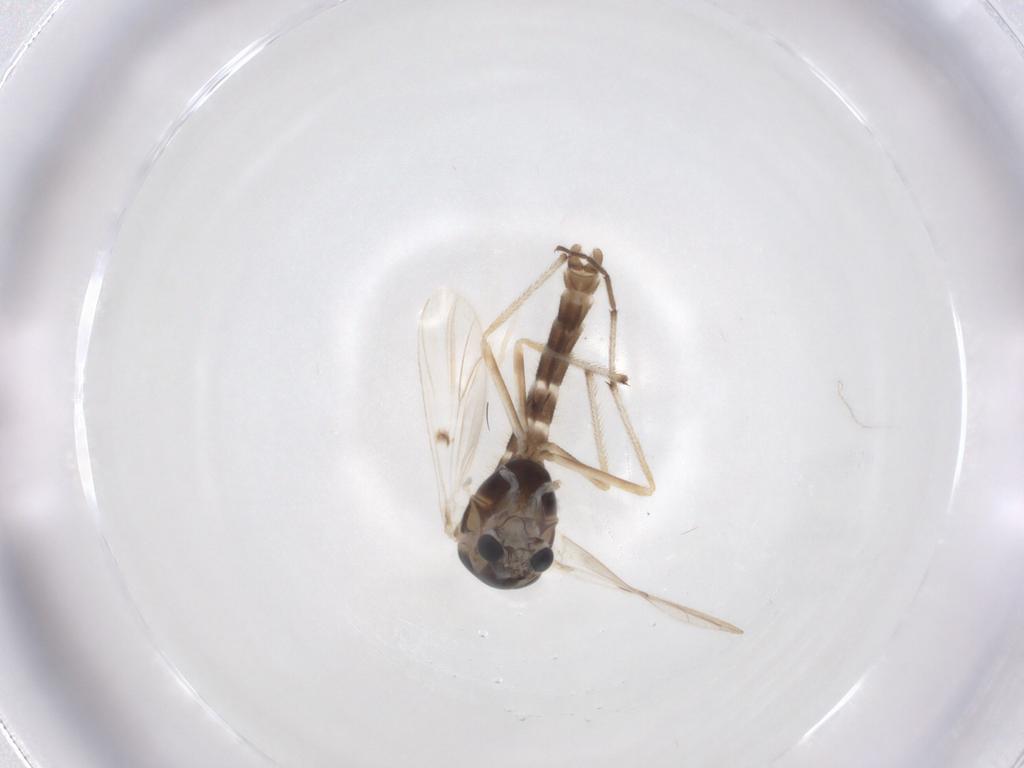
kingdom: Animalia
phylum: Arthropoda
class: Insecta
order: Diptera
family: Chironomidae
